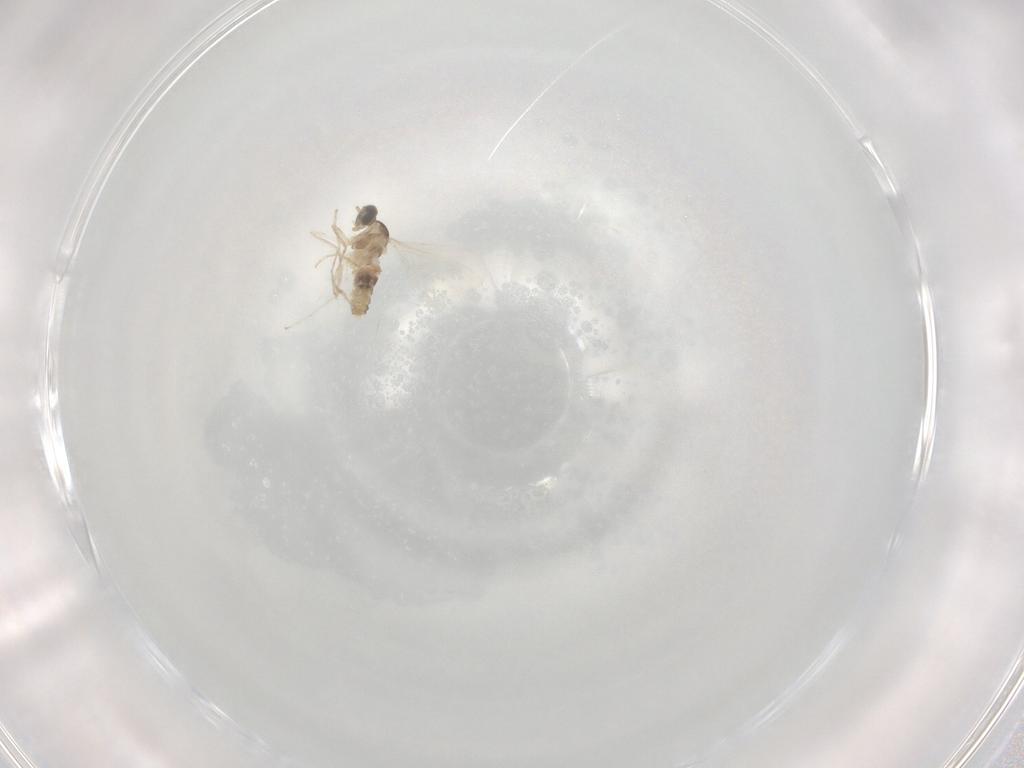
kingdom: Animalia
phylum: Arthropoda
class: Insecta
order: Diptera
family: Cecidomyiidae
